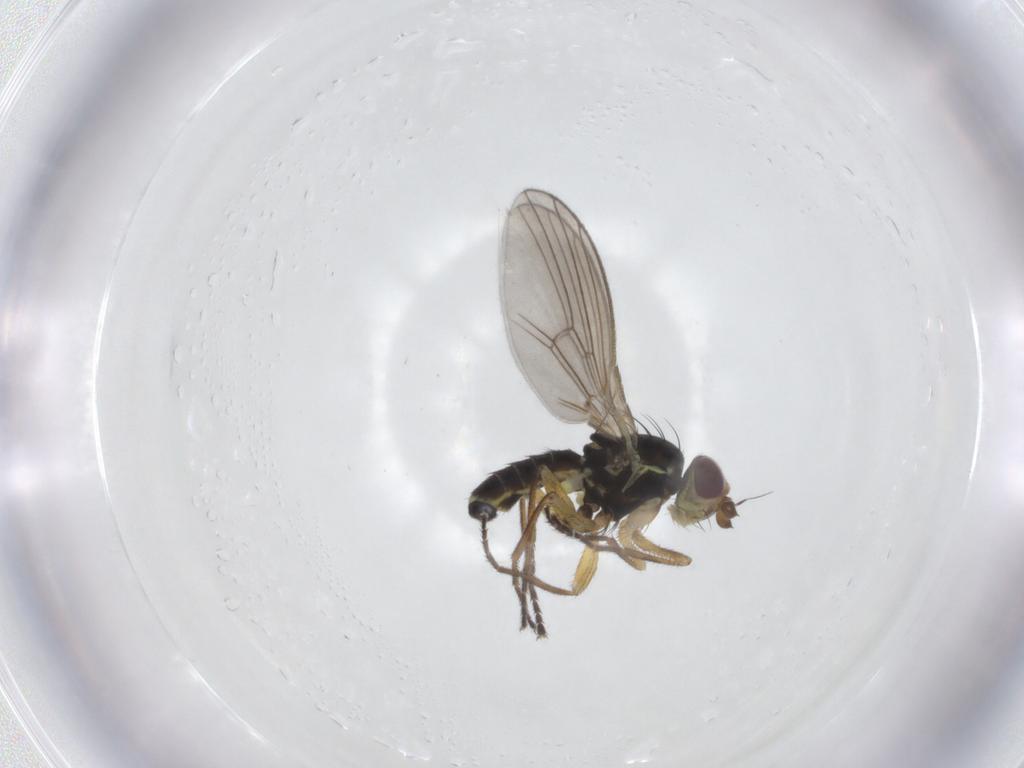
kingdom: Animalia
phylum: Arthropoda
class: Insecta
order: Diptera
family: Agromyzidae
